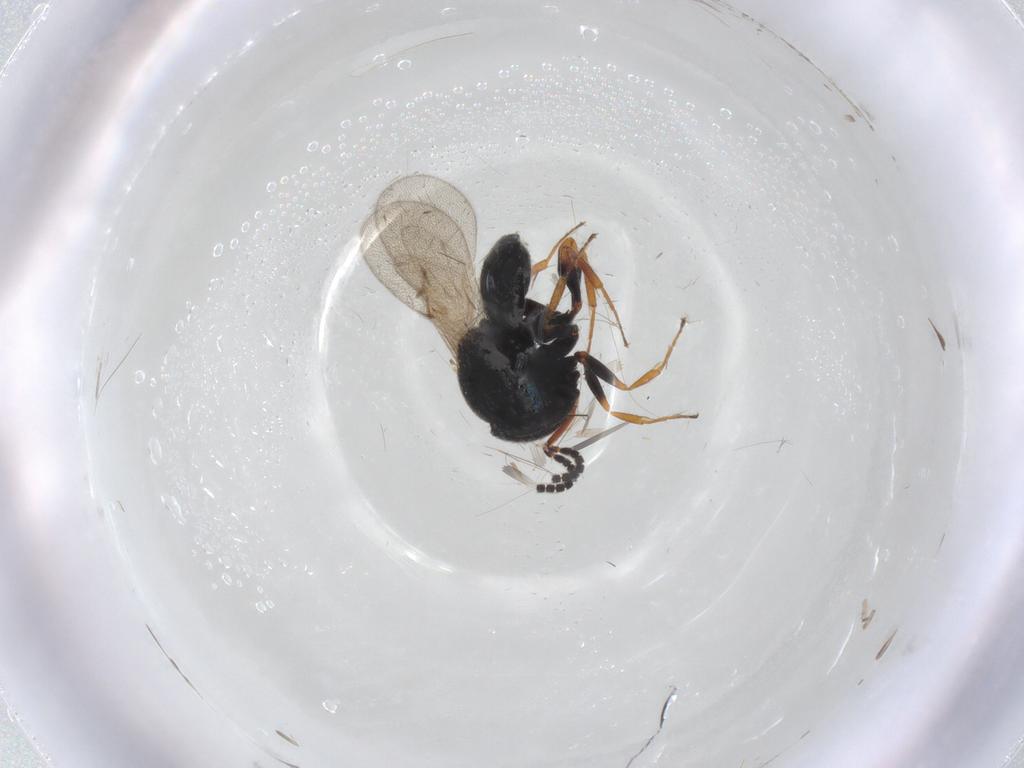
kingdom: Animalia
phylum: Arthropoda
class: Insecta
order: Hymenoptera
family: Scelionidae
